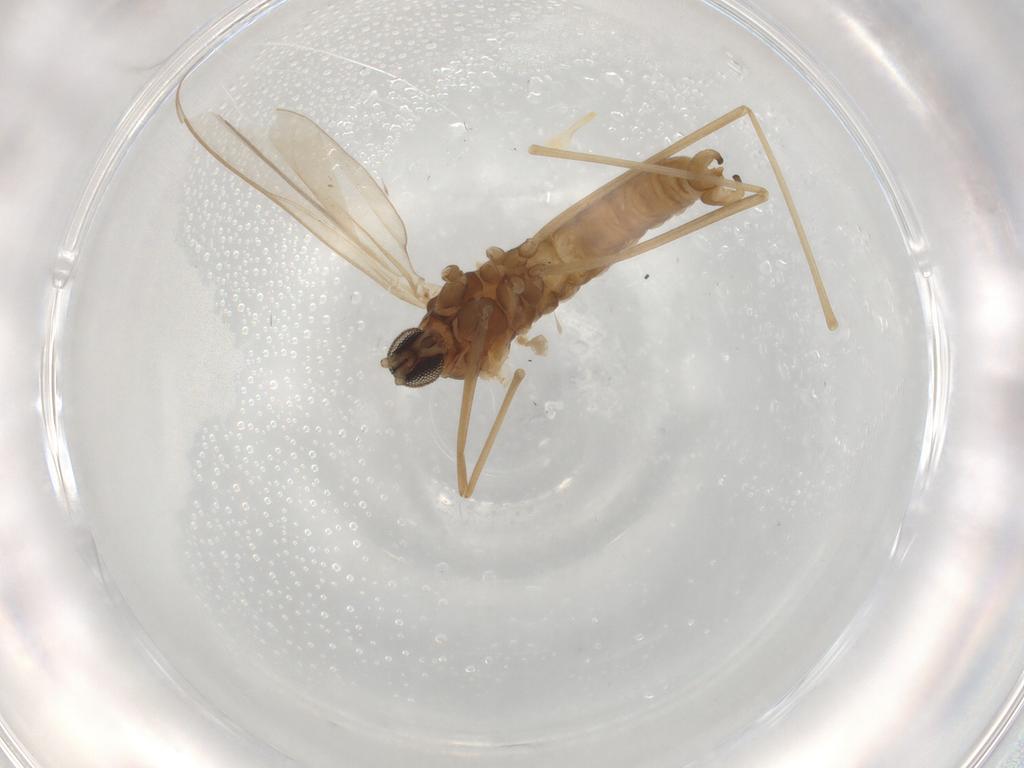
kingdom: Animalia
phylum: Arthropoda
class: Insecta
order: Diptera
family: Cecidomyiidae
